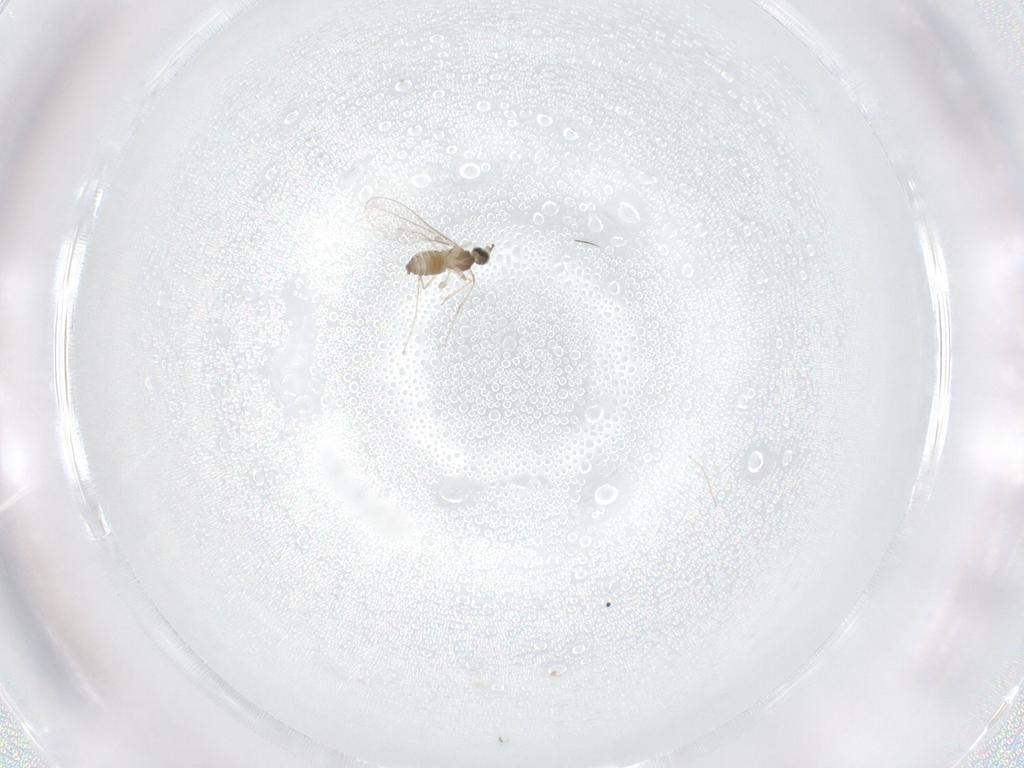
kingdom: Animalia
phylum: Arthropoda
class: Insecta
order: Diptera
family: Cecidomyiidae
